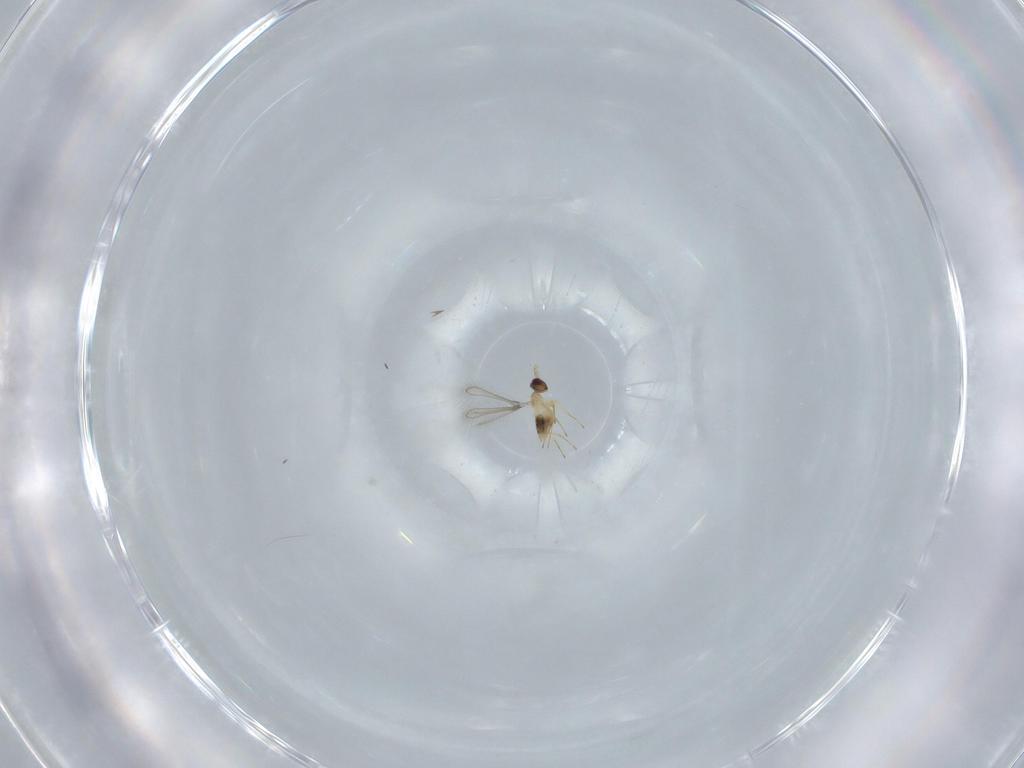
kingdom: Animalia
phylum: Arthropoda
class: Insecta
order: Hymenoptera
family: Mymaridae
